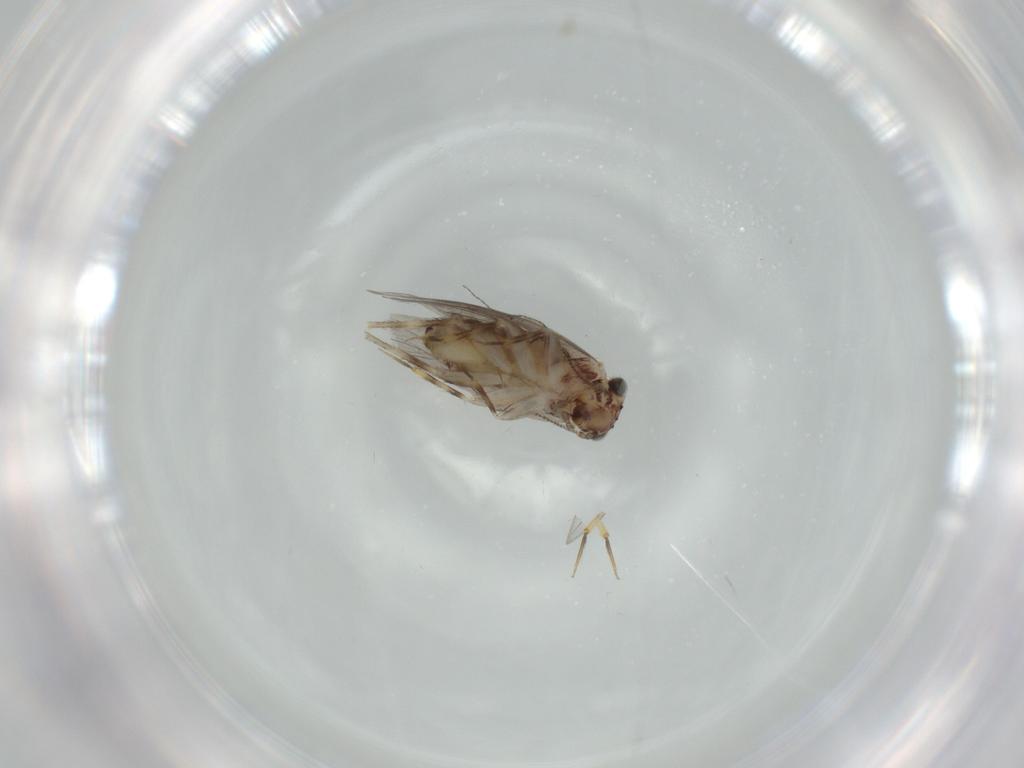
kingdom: Animalia
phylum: Arthropoda
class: Insecta
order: Psocodea
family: Lepidopsocidae
